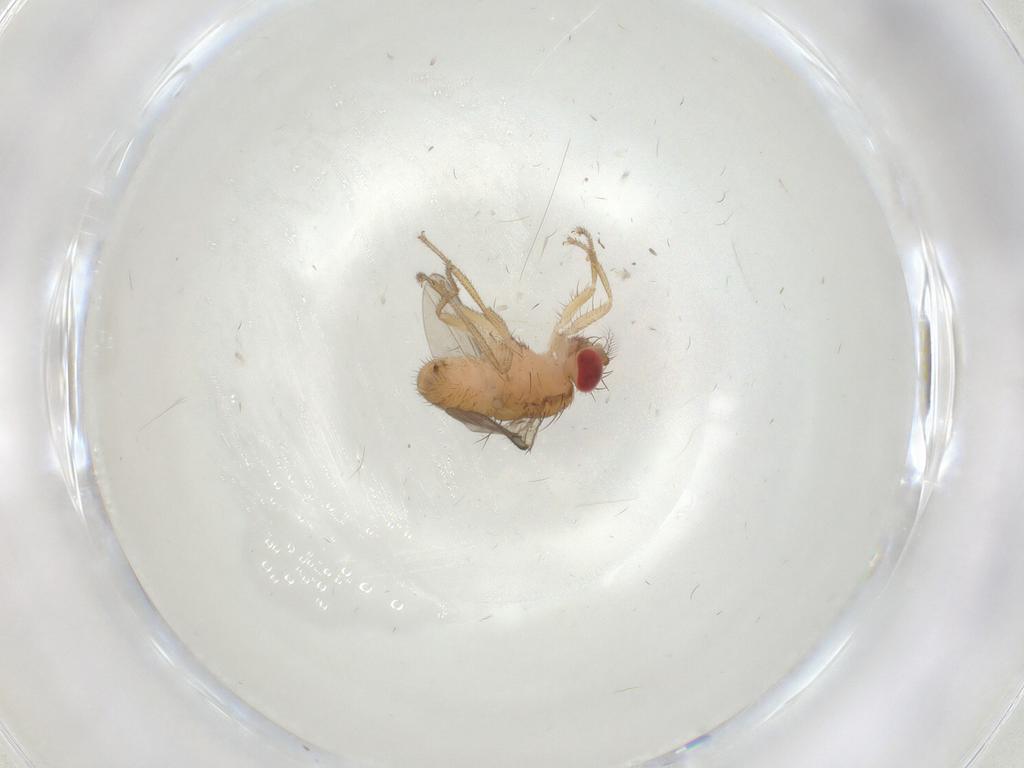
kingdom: Animalia
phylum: Arthropoda
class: Insecta
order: Diptera
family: Drosophilidae
